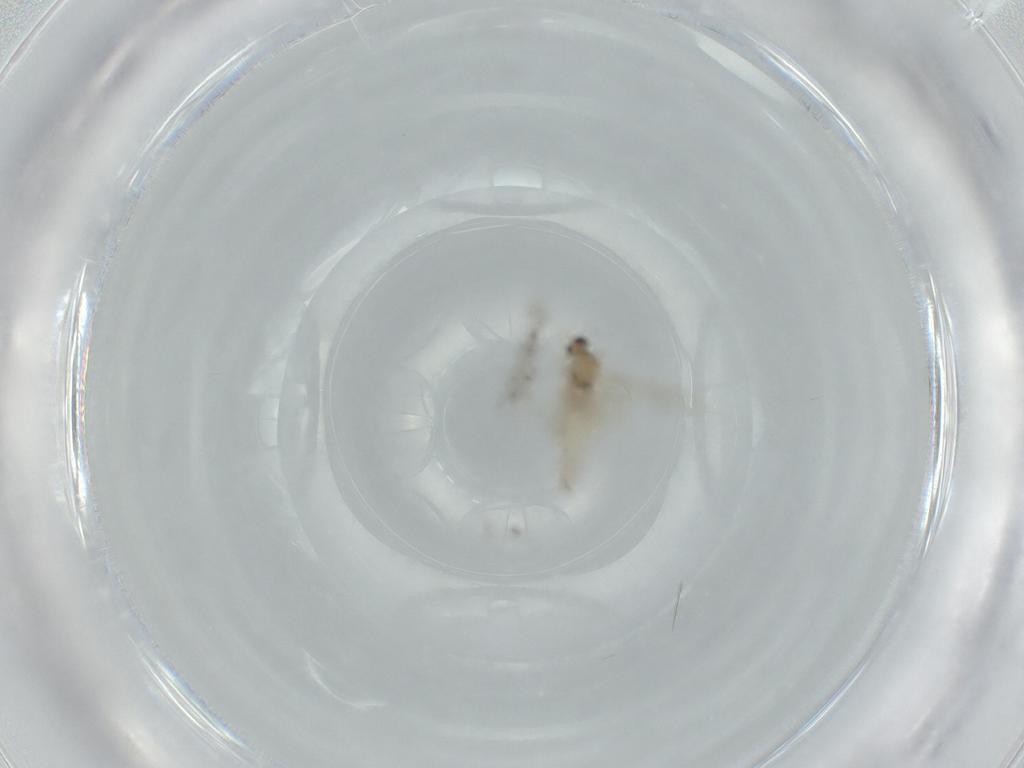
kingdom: Animalia
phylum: Arthropoda
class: Insecta
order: Diptera
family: Cecidomyiidae
